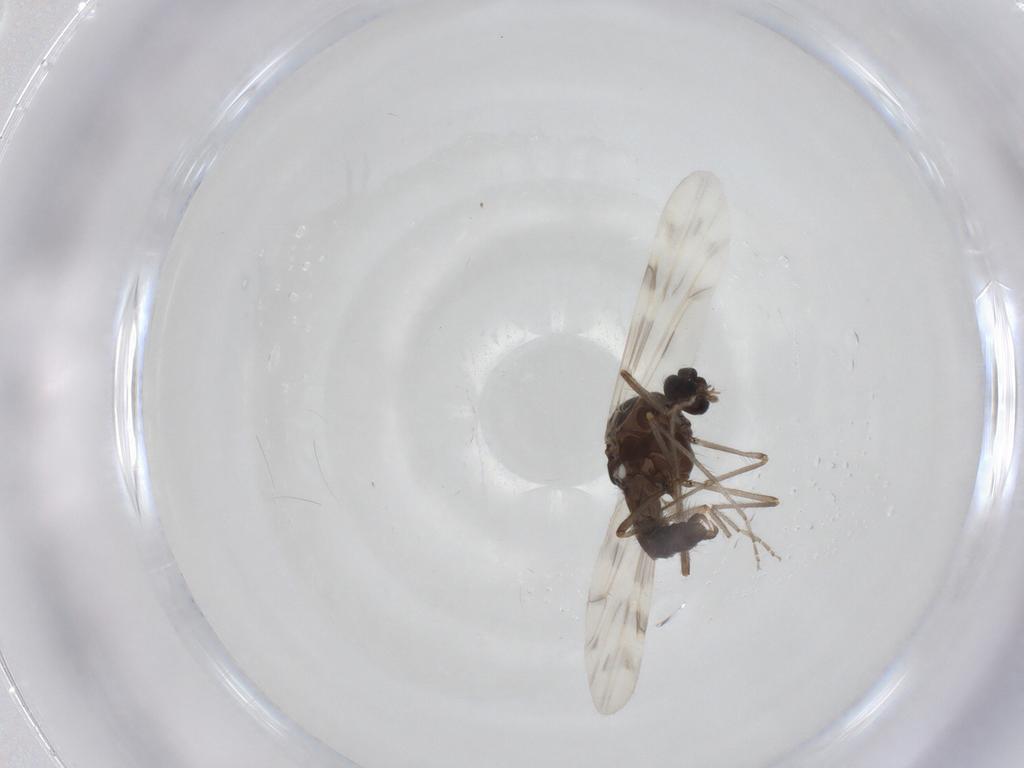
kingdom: Animalia
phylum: Arthropoda
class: Insecta
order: Diptera
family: Ceratopogonidae
